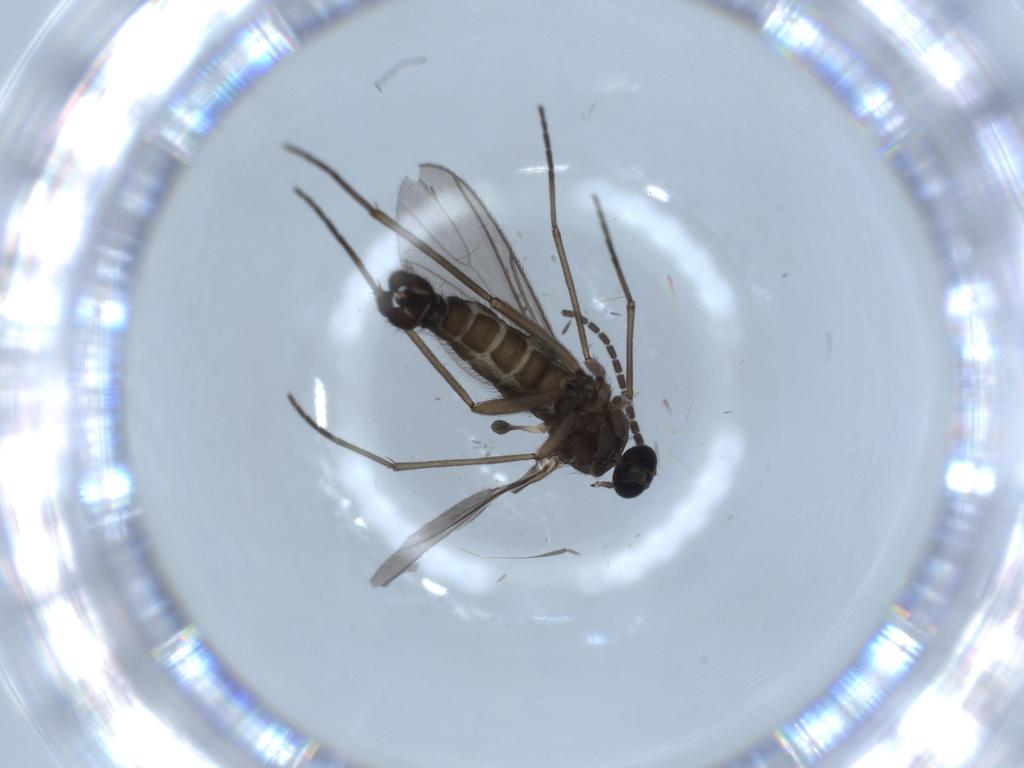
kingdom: Animalia
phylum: Arthropoda
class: Insecta
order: Diptera
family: Sciaridae
